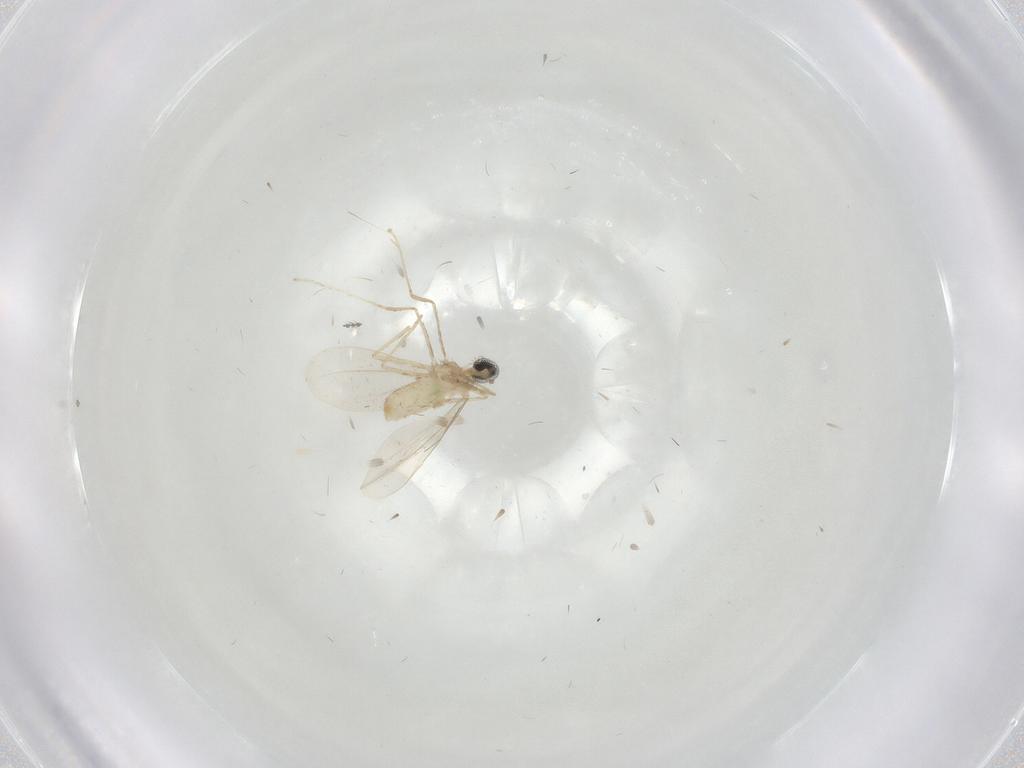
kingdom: Animalia
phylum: Arthropoda
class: Insecta
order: Diptera
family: Cecidomyiidae
